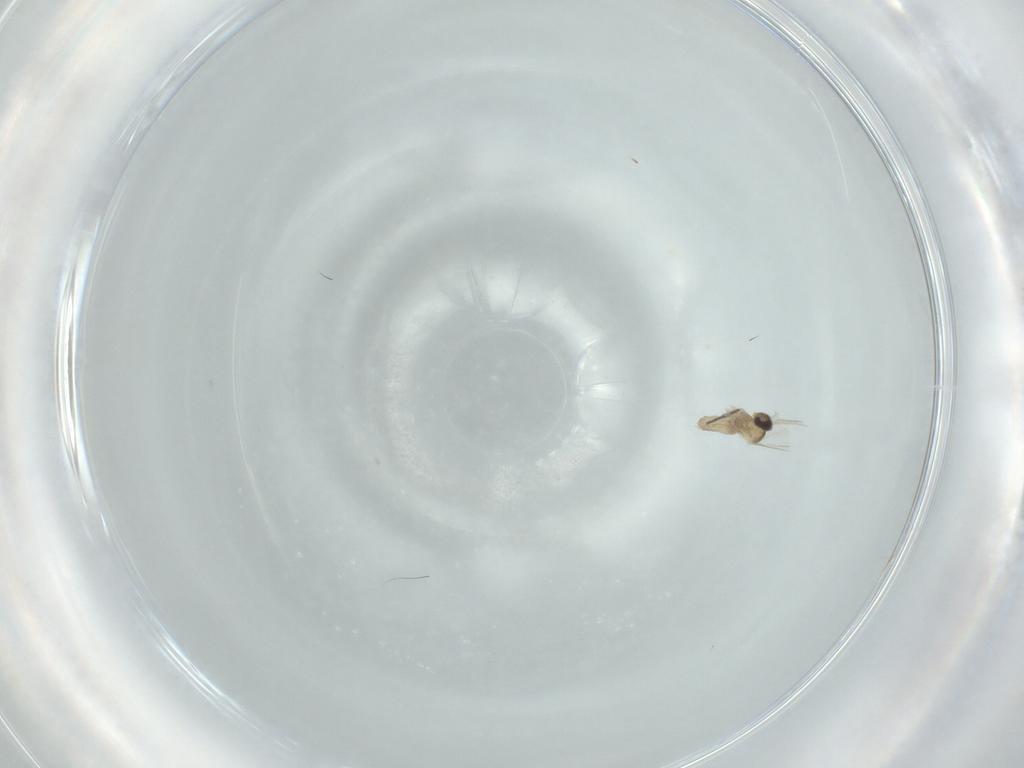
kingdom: Animalia
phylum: Arthropoda
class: Insecta
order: Diptera
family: Cecidomyiidae
